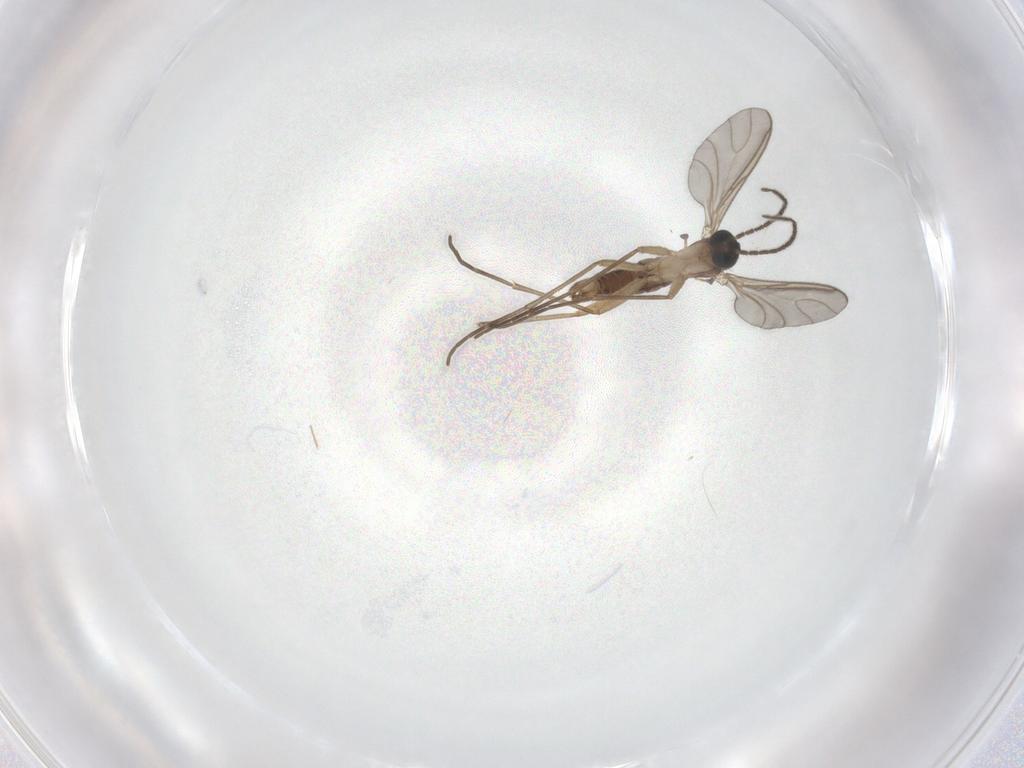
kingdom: Animalia
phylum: Arthropoda
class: Insecta
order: Diptera
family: Sciaridae
